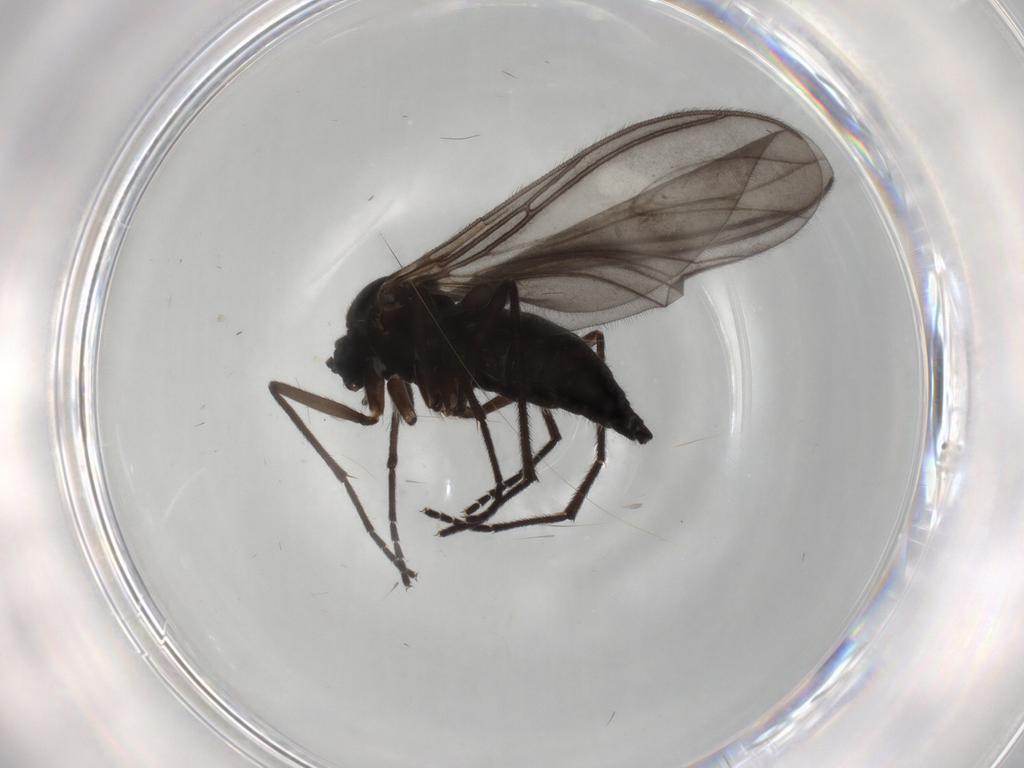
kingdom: Animalia
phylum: Arthropoda
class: Insecta
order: Diptera
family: Sciaridae
